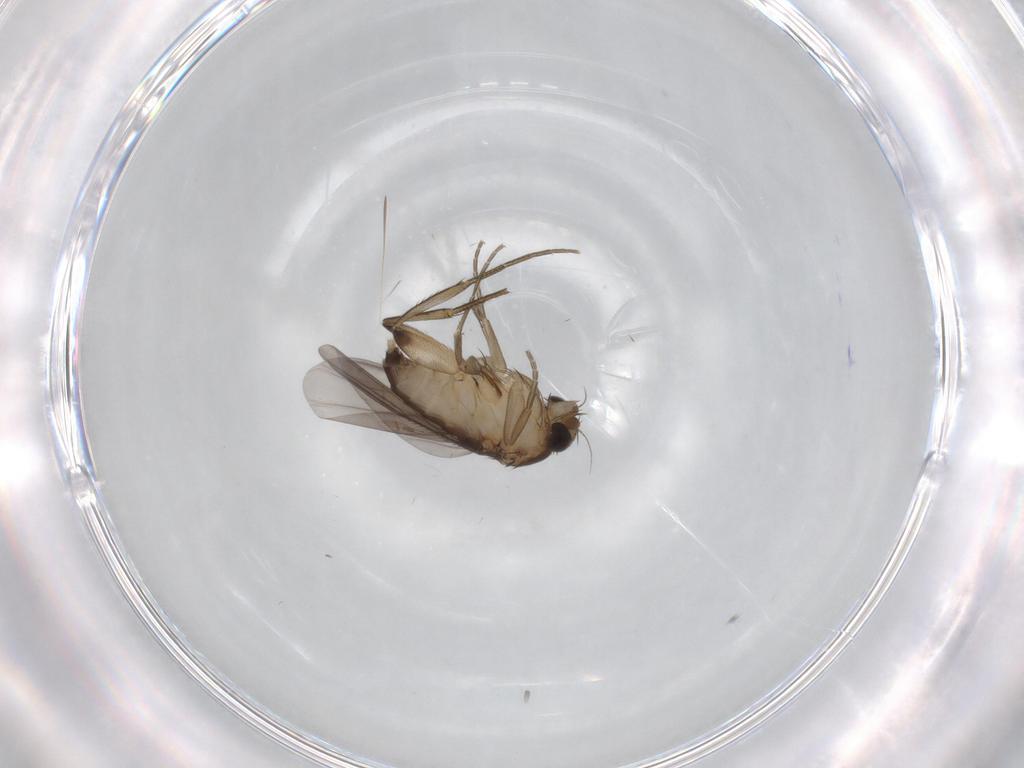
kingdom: Animalia
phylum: Arthropoda
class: Insecta
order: Diptera
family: Phoridae
